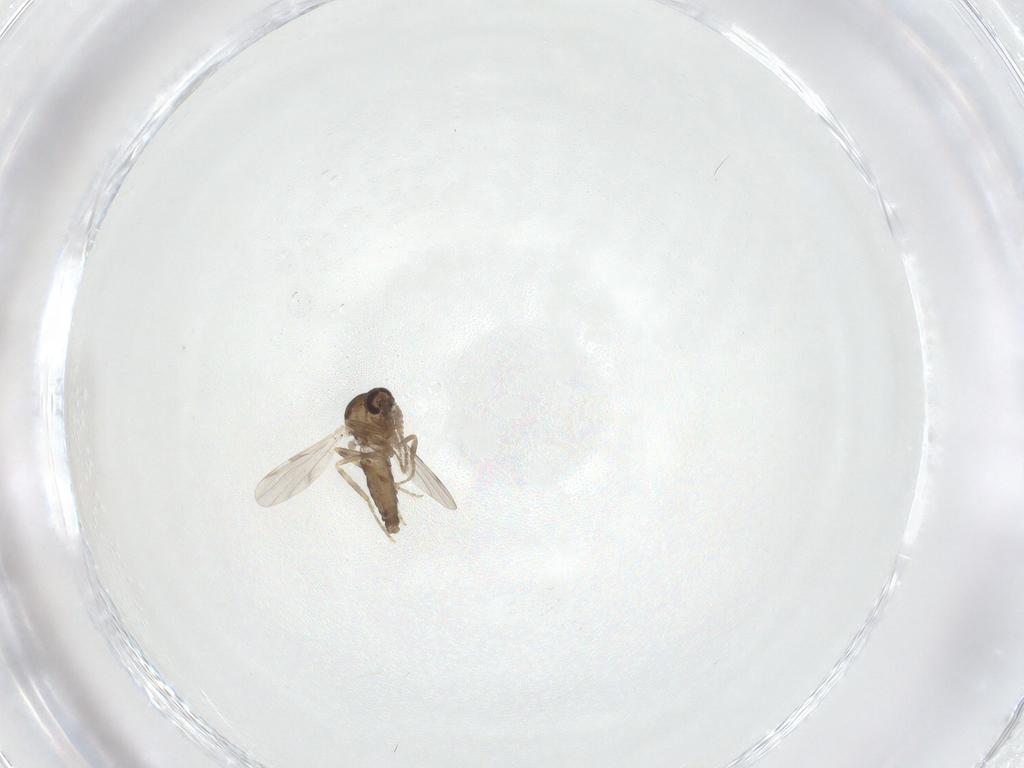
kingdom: Animalia
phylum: Arthropoda
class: Insecta
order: Diptera
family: Ceratopogonidae
